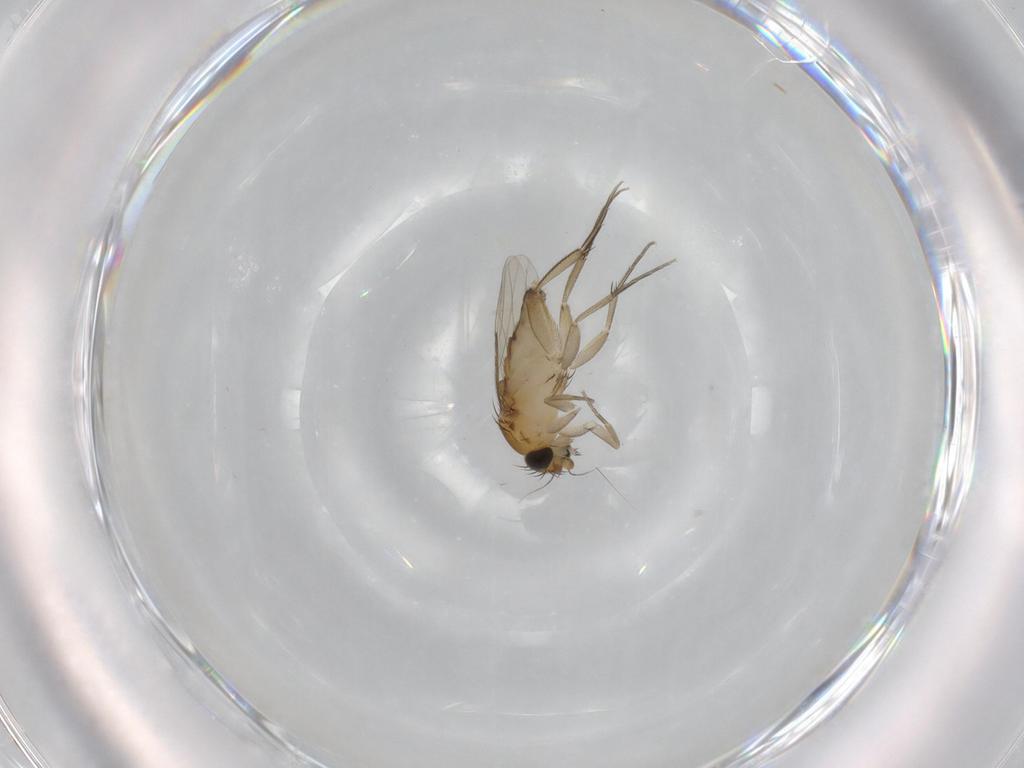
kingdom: Animalia
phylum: Arthropoda
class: Insecta
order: Diptera
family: Phoridae
